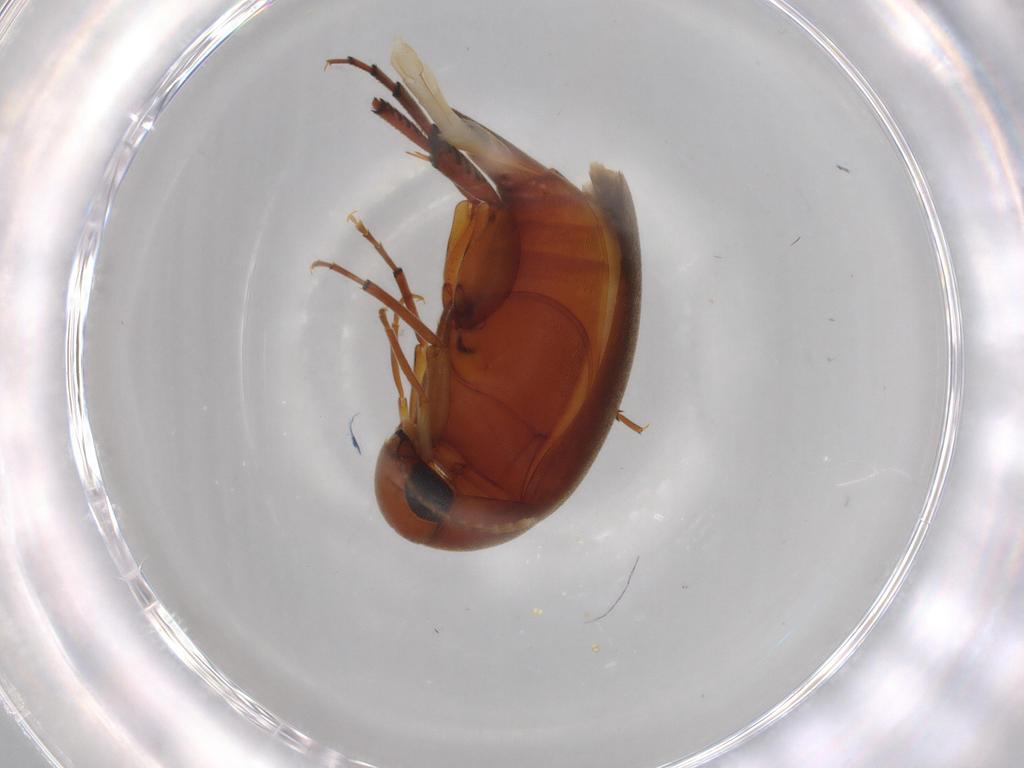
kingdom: Animalia
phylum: Arthropoda
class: Insecta
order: Coleoptera
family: Mordellidae
